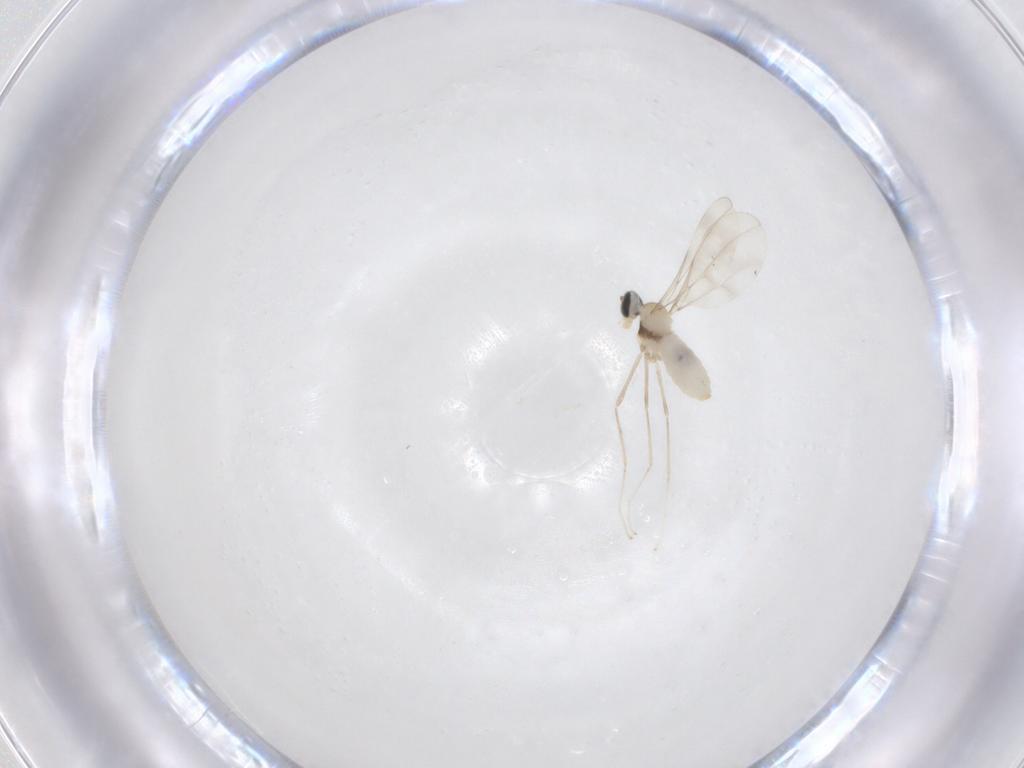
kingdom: Animalia
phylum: Arthropoda
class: Insecta
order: Diptera
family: Cecidomyiidae
